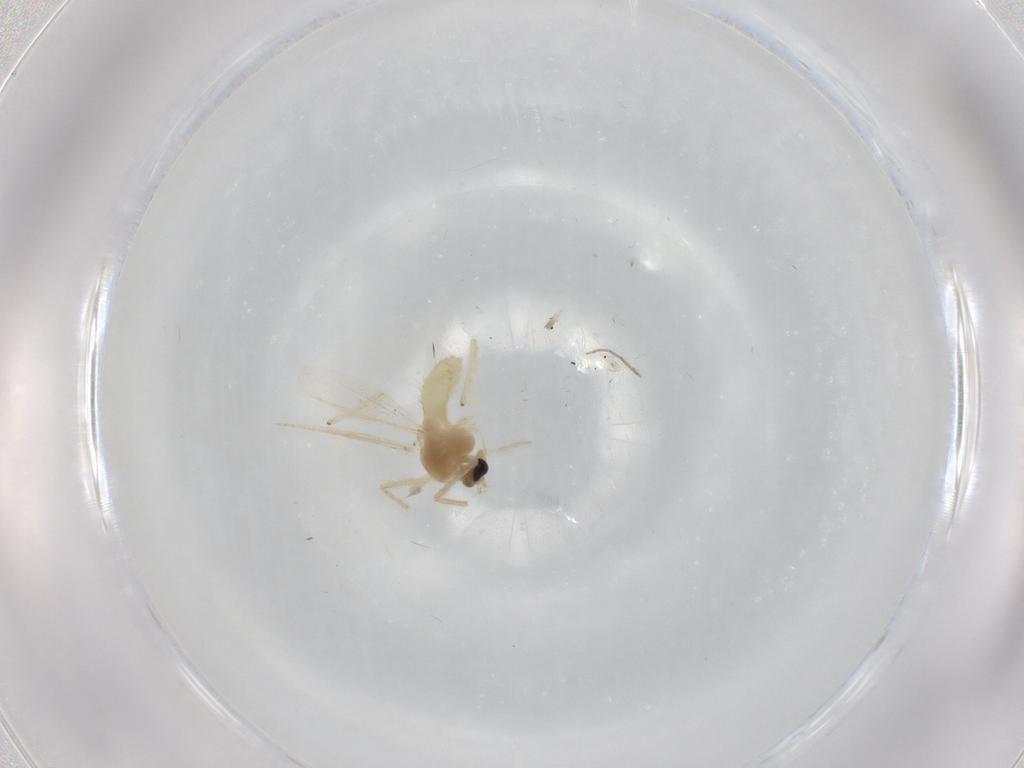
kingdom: Animalia
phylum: Arthropoda
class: Insecta
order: Diptera
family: Chironomidae
